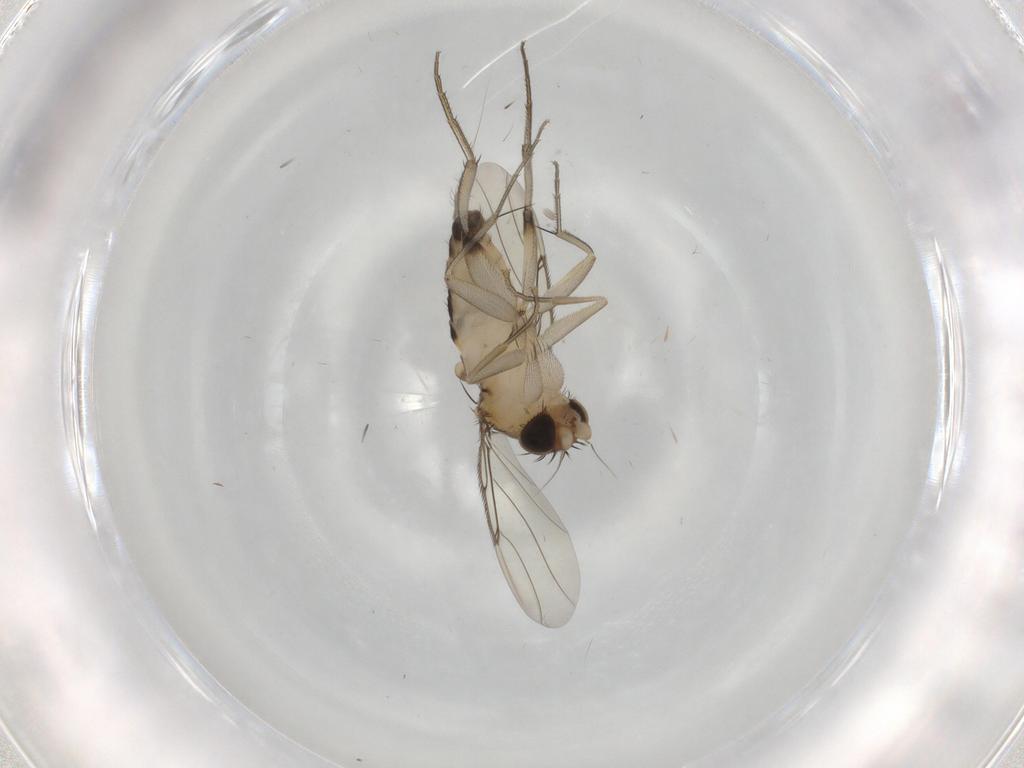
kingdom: Animalia
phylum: Arthropoda
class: Insecta
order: Diptera
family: Phoridae
